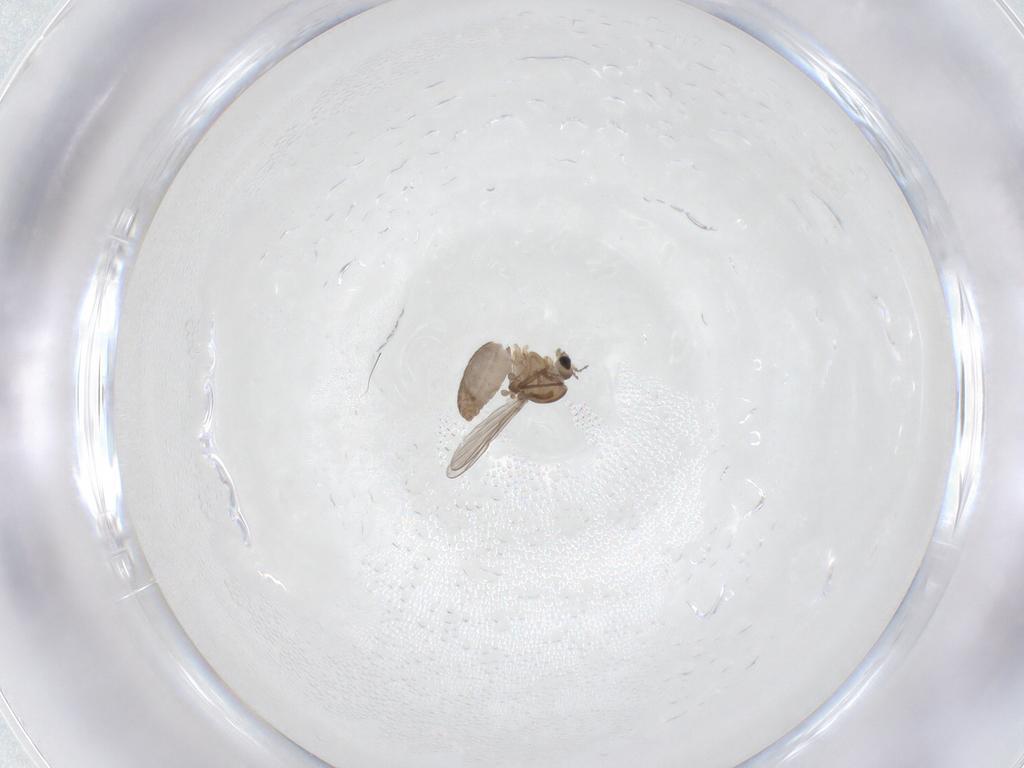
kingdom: Animalia
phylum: Arthropoda
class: Insecta
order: Diptera
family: Chironomidae
